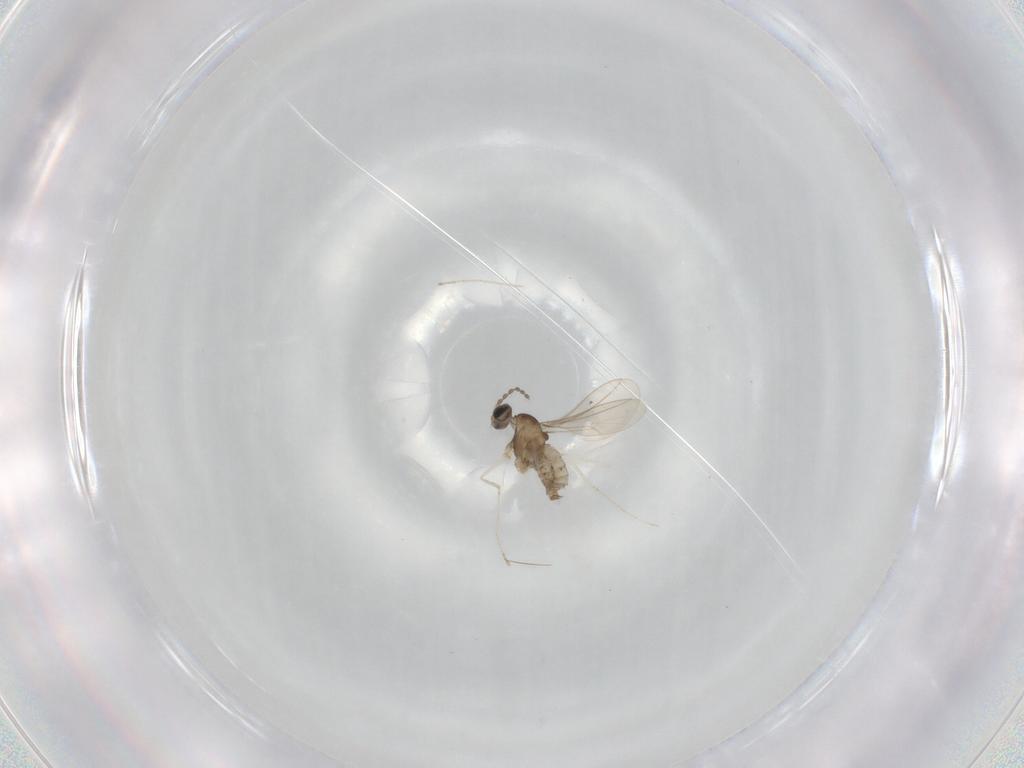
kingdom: Animalia
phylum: Arthropoda
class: Insecta
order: Diptera
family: Cecidomyiidae
